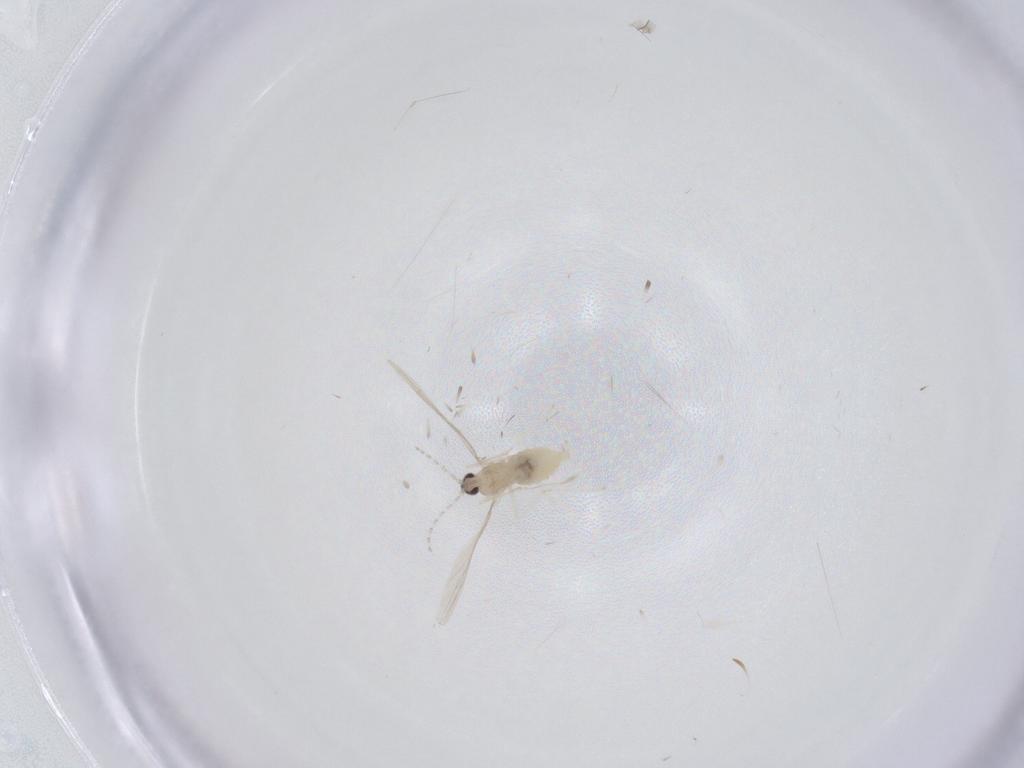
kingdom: Animalia
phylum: Arthropoda
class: Insecta
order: Diptera
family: Cecidomyiidae
